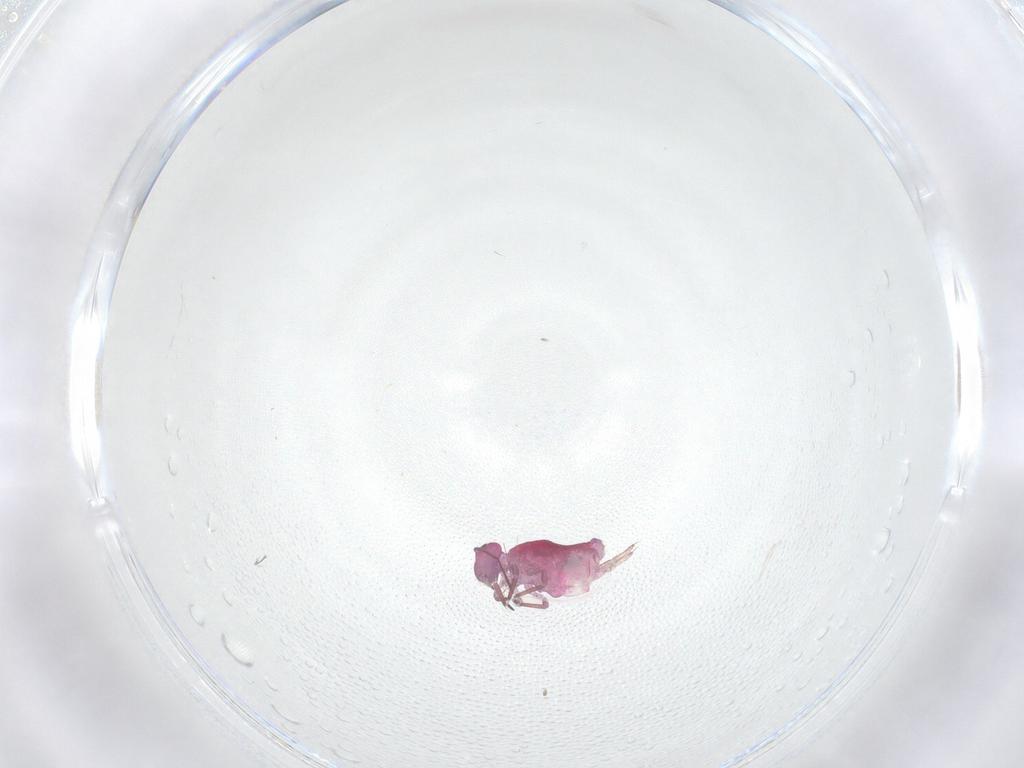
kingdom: Animalia
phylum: Arthropoda
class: Collembola
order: Symphypleona
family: Sminthuridae
